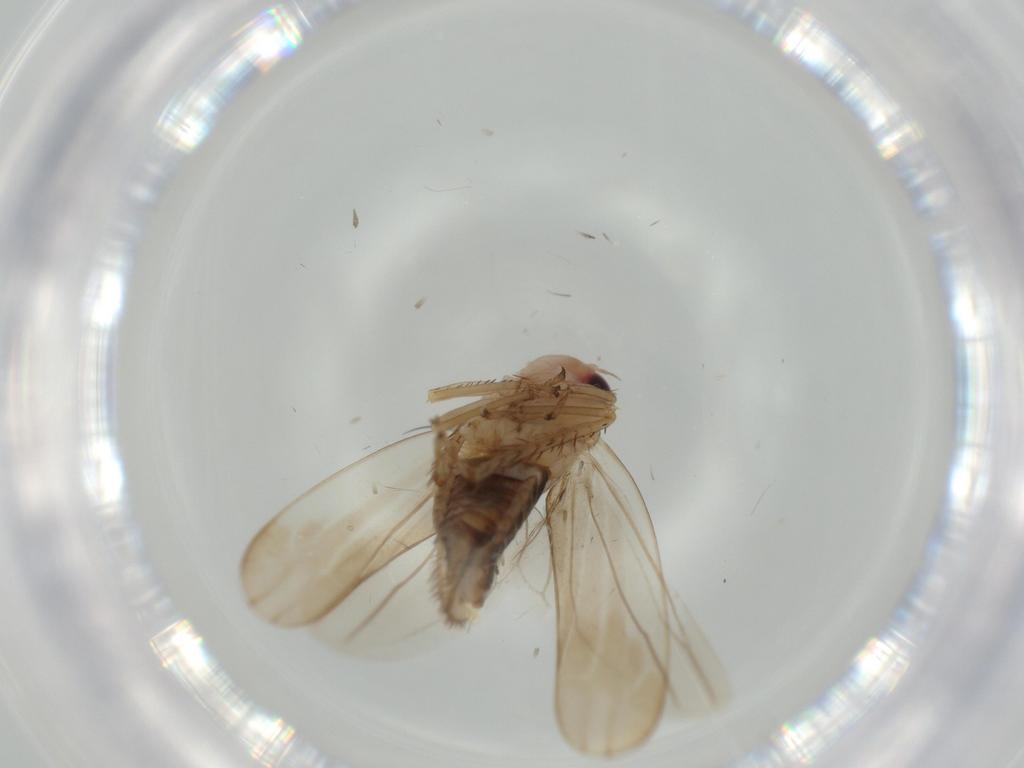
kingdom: Animalia
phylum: Arthropoda
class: Insecta
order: Hemiptera
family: Cicadellidae
